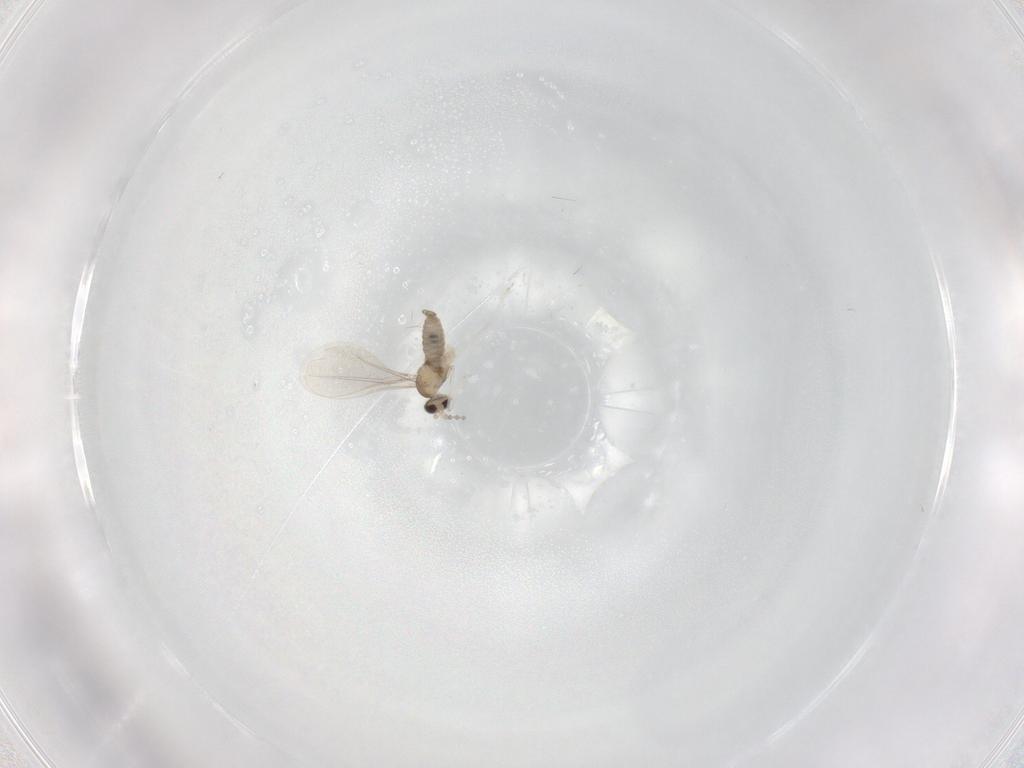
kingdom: Animalia
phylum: Arthropoda
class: Insecta
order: Diptera
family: Cecidomyiidae
